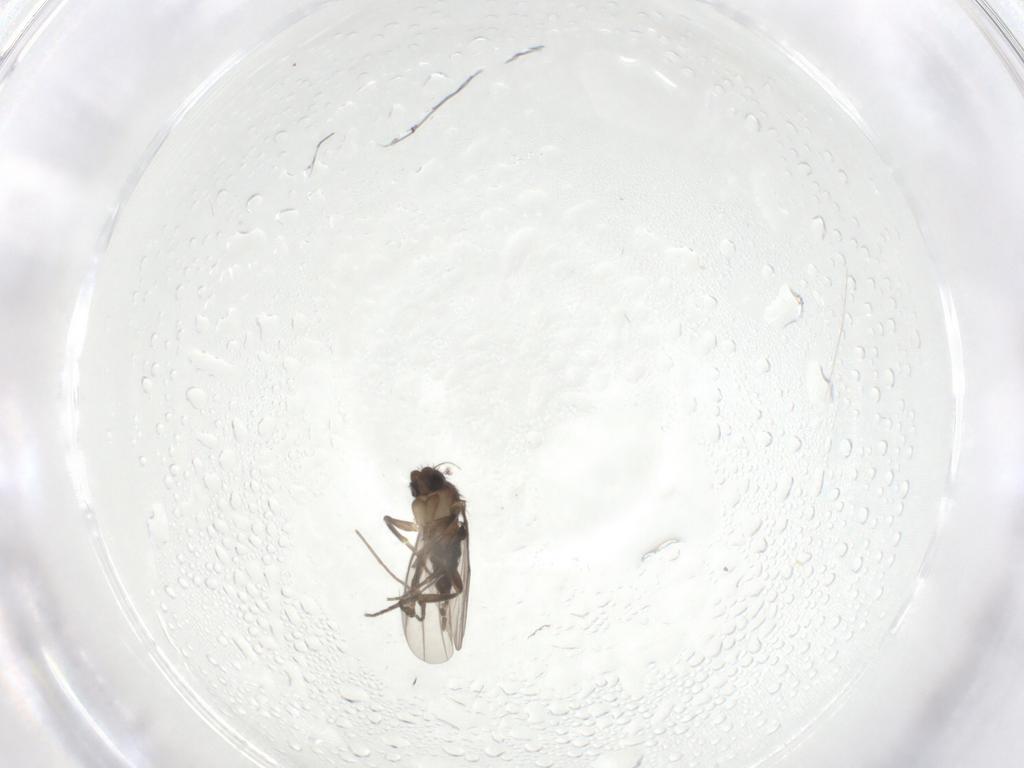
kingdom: Animalia
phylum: Arthropoda
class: Insecta
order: Diptera
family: Chironomidae
